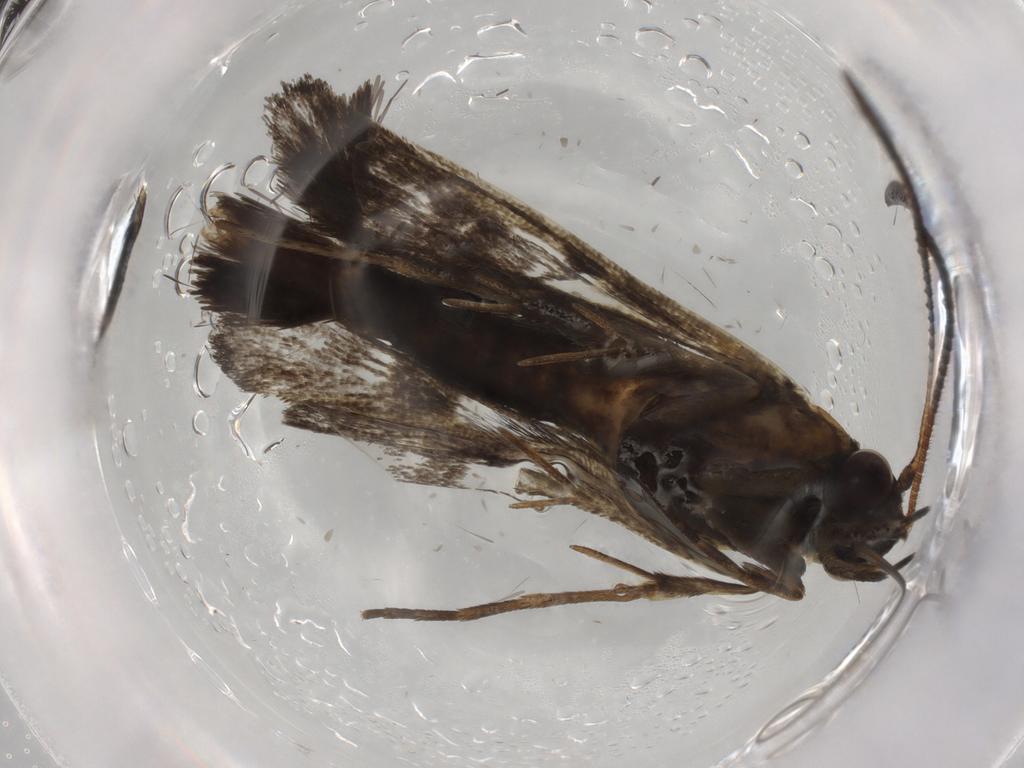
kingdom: Animalia
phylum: Arthropoda
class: Insecta
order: Lepidoptera
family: Sesiidae
